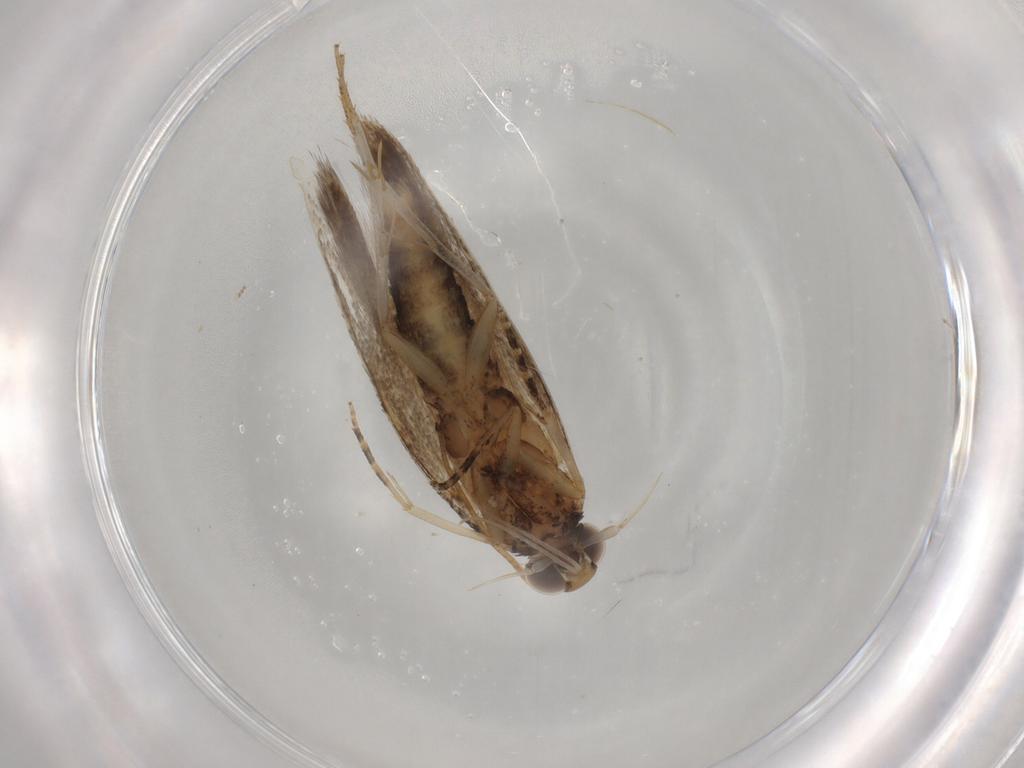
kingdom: Animalia
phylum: Arthropoda
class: Insecta
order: Lepidoptera
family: Gelechiidae
